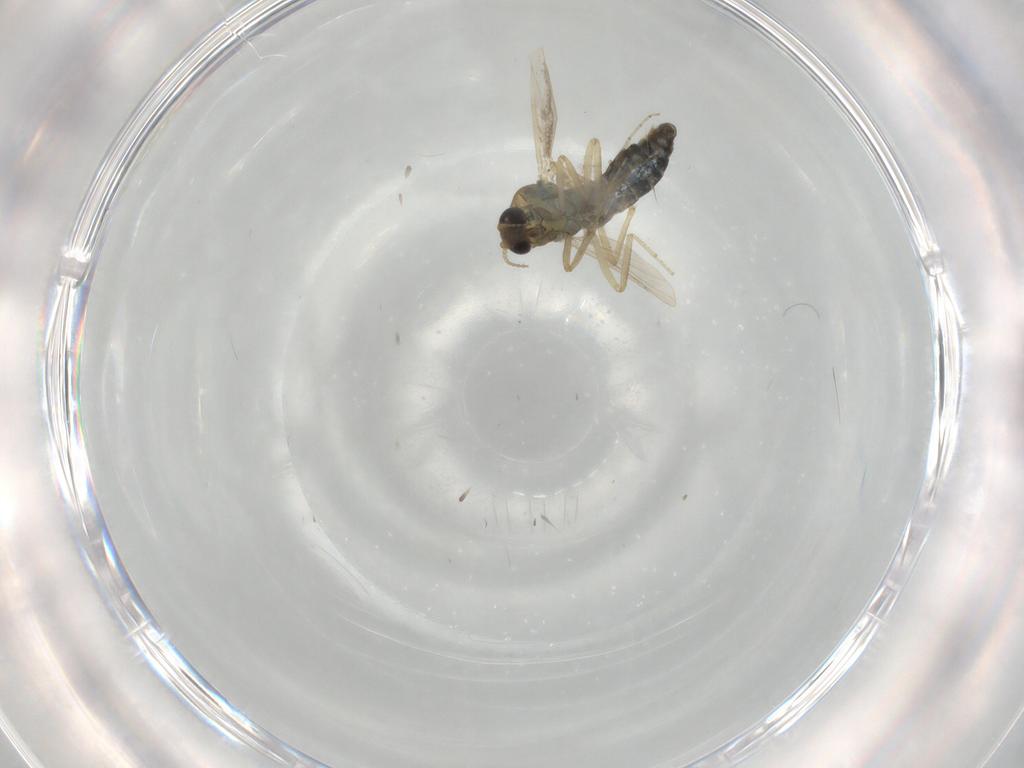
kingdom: Animalia
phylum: Arthropoda
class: Insecta
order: Diptera
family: Ceratopogonidae
